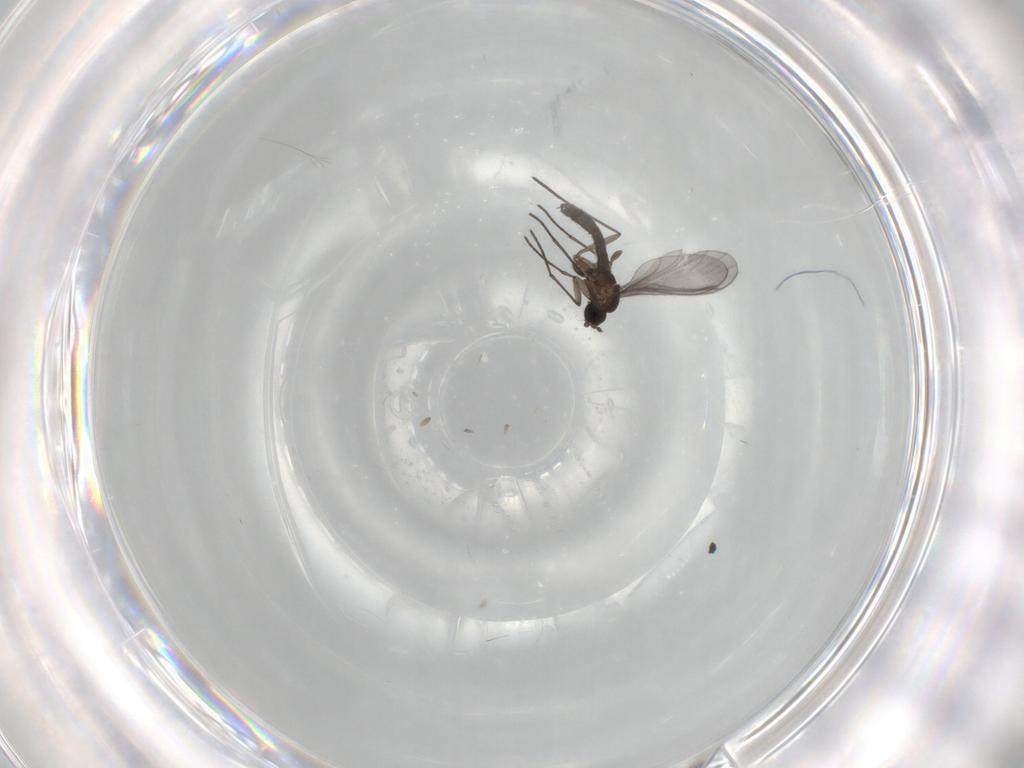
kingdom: Animalia
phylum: Arthropoda
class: Insecta
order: Diptera
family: Sciaridae
